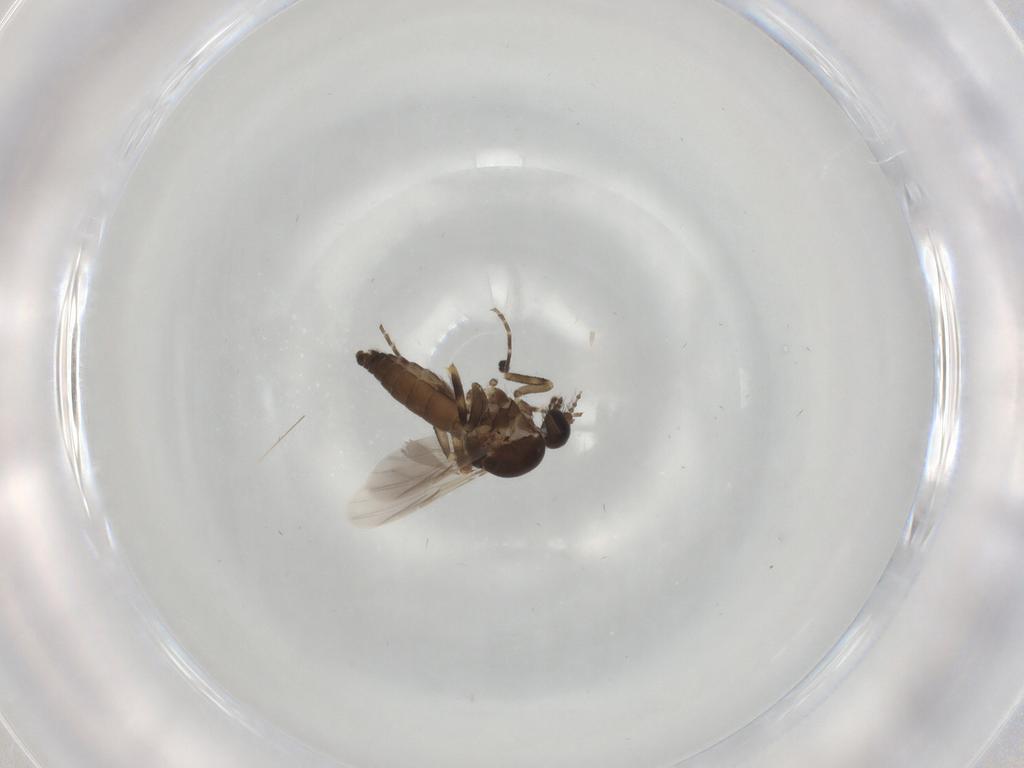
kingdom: Animalia
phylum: Arthropoda
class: Insecta
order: Diptera
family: Ceratopogonidae
